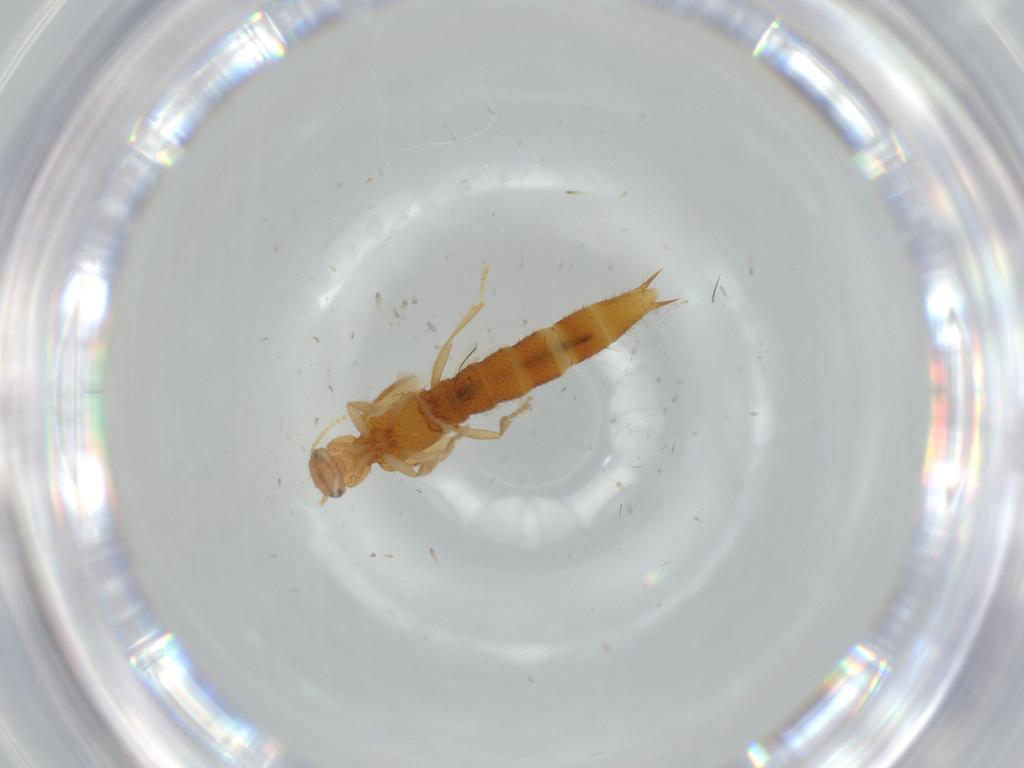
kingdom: Animalia
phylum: Arthropoda
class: Insecta
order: Coleoptera
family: Staphylinidae
